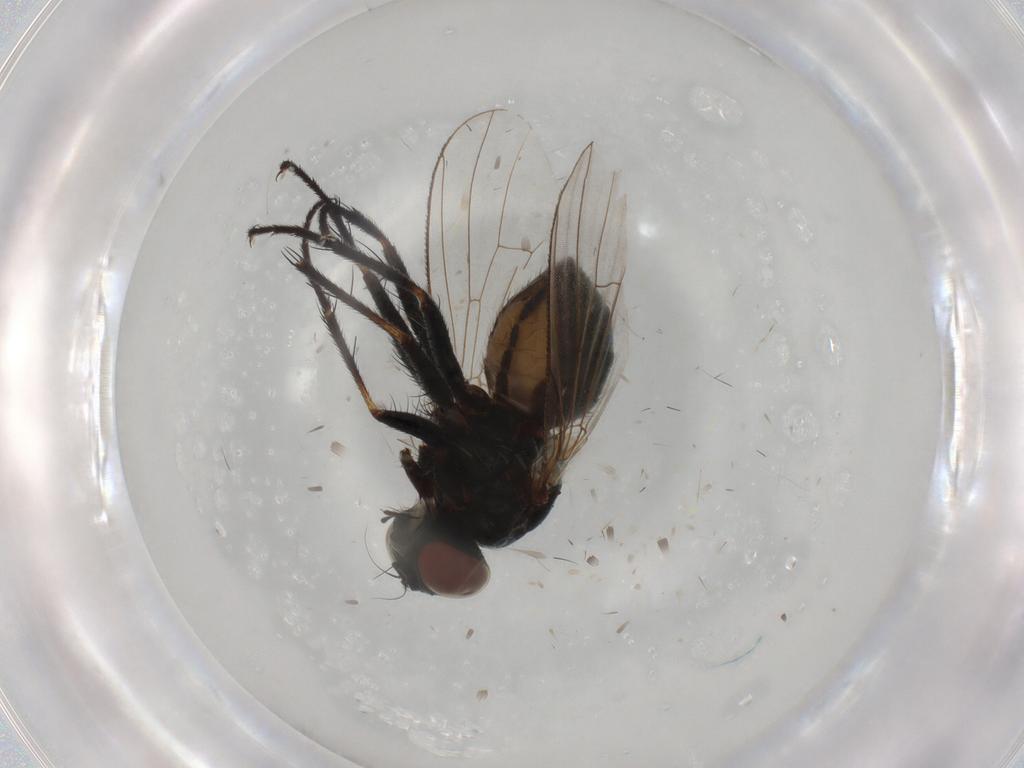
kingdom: Animalia
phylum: Arthropoda
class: Insecta
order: Diptera
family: Muscidae
